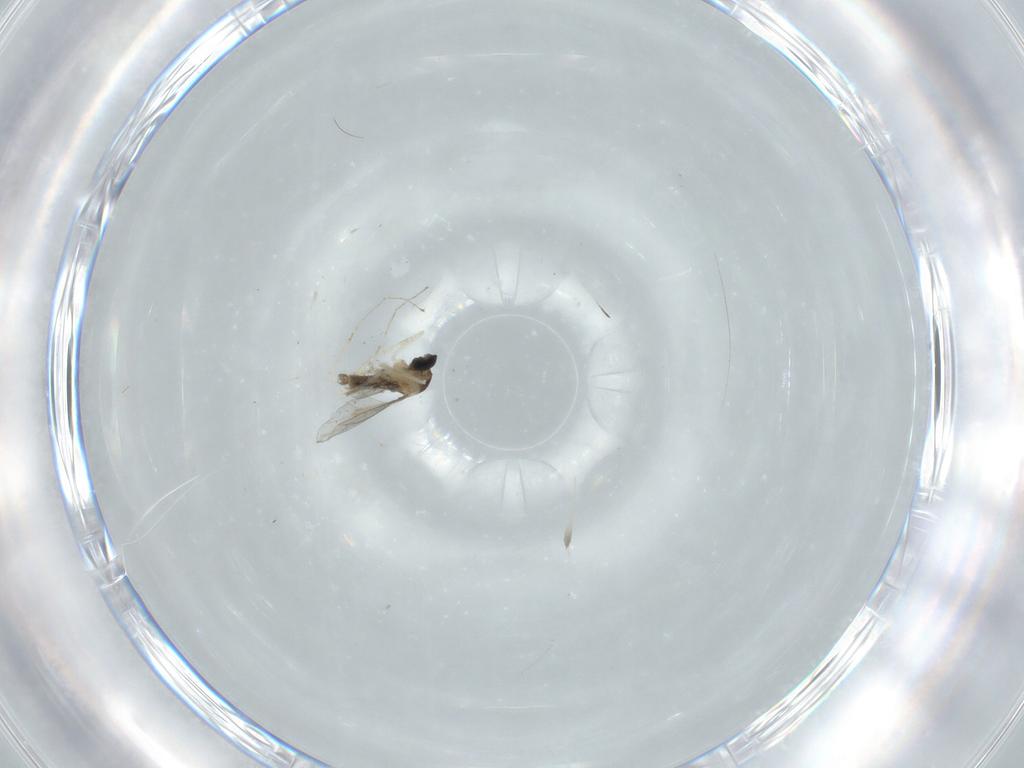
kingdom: Animalia
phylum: Arthropoda
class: Insecta
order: Diptera
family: Cecidomyiidae
